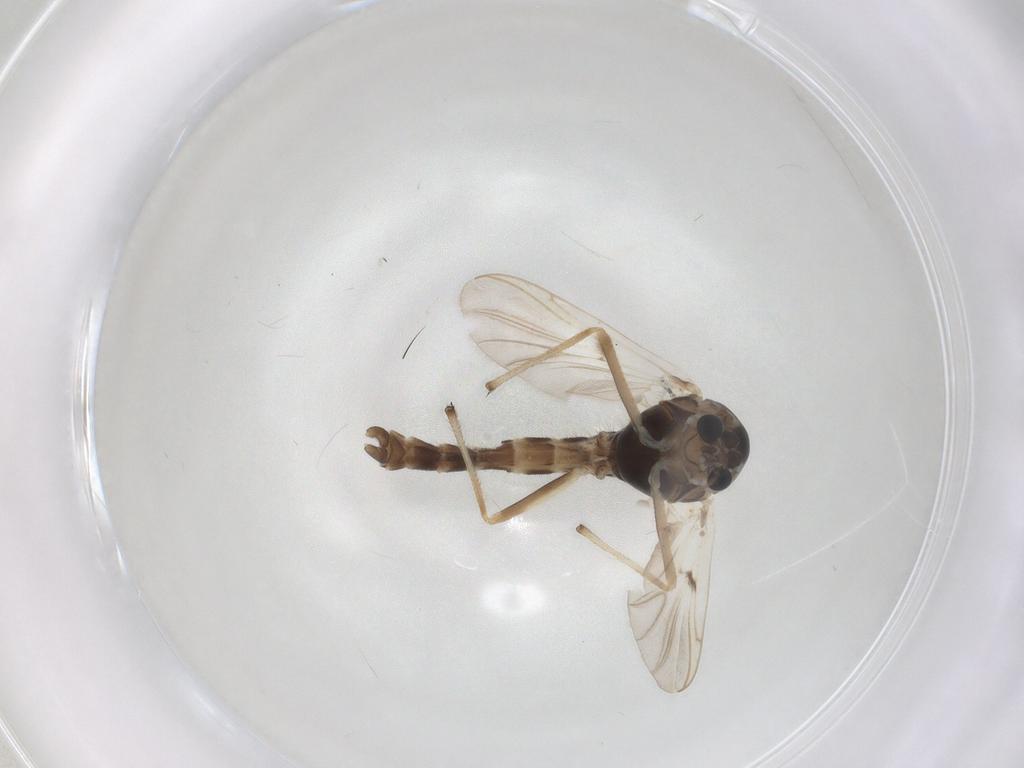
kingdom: Animalia
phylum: Arthropoda
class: Insecta
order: Diptera
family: Chironomidae
